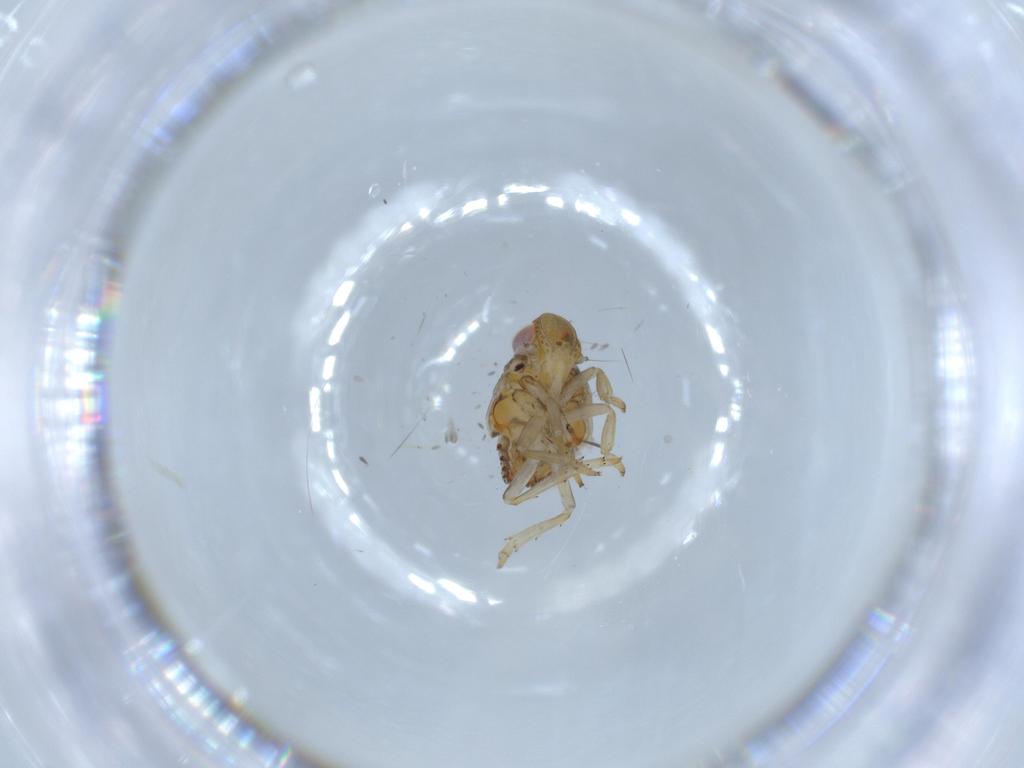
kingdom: Animalia
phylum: Arthropoda
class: Insecta
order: Hemiptera
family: Issidae
